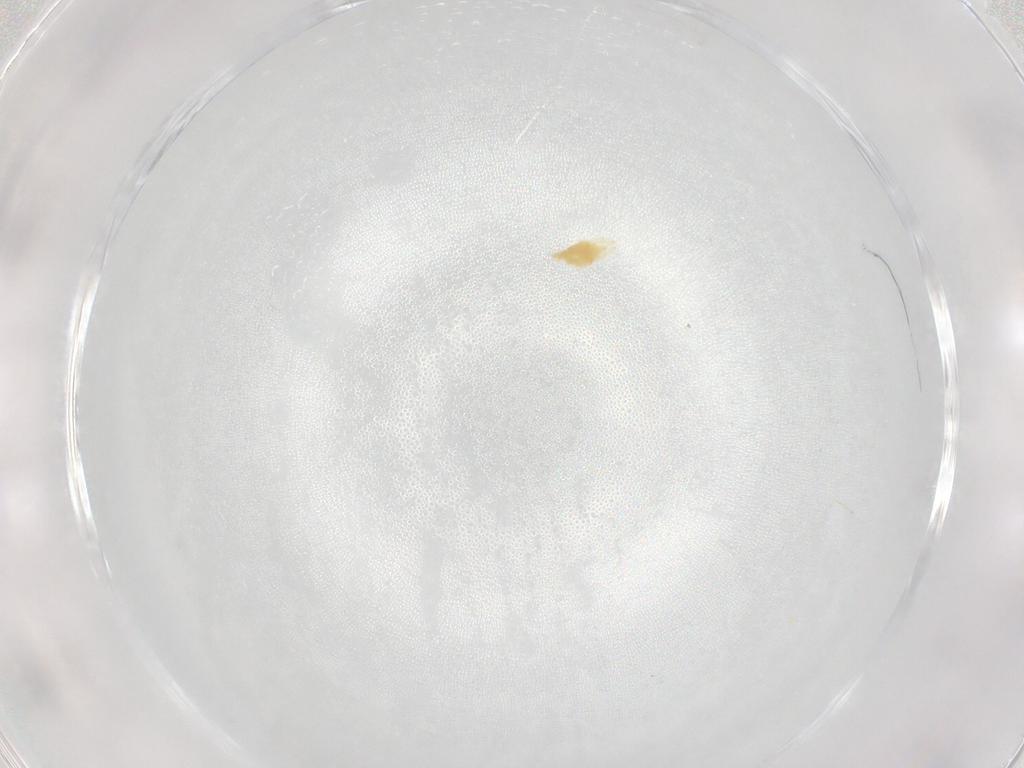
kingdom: Animalia
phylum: Arthropoda
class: Arachnida
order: Trombidiformes
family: Tetranychidae
